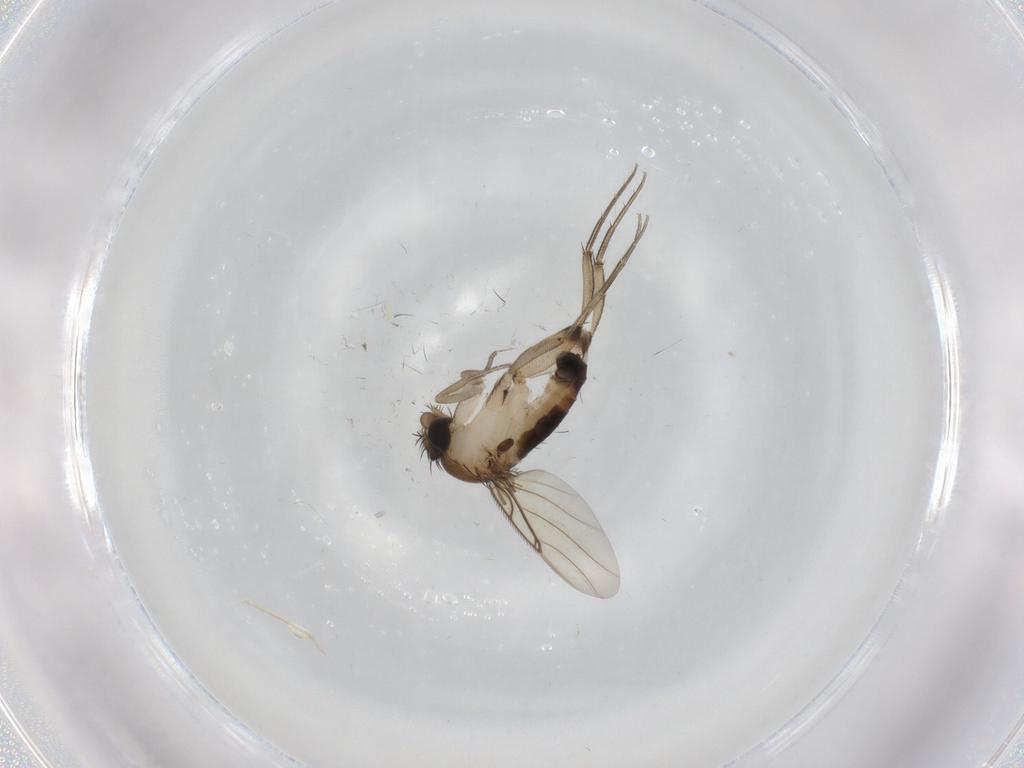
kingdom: Animalia
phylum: Arthropoda
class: Insecta
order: Diptera
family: Phoridae
